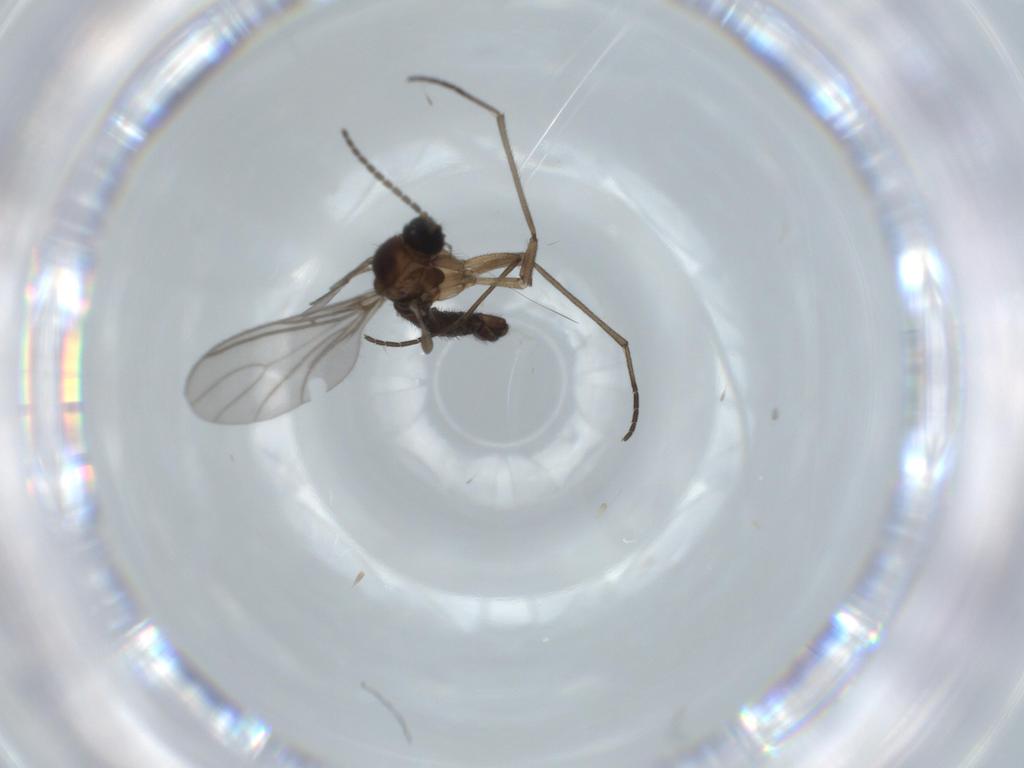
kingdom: Animalia
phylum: Arthropoda
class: Insecta
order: Diptera
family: Sciaridae
